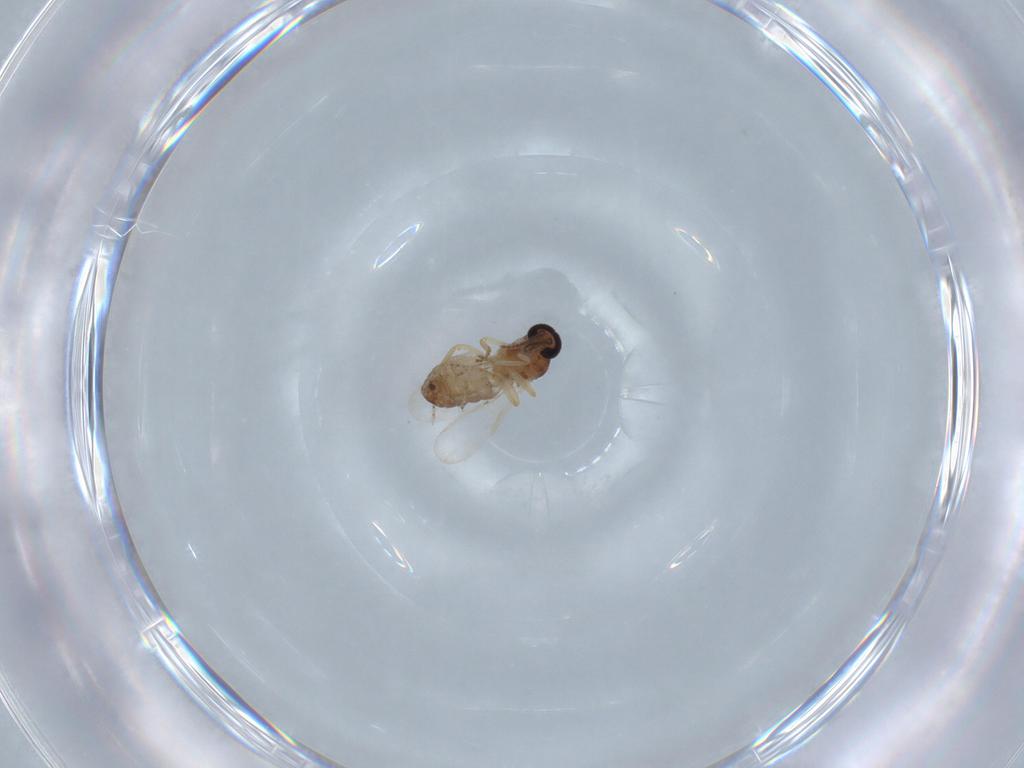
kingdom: Animalia
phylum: Arthropoda
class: Insecta
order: Diptera
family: Ceratopogonidae
